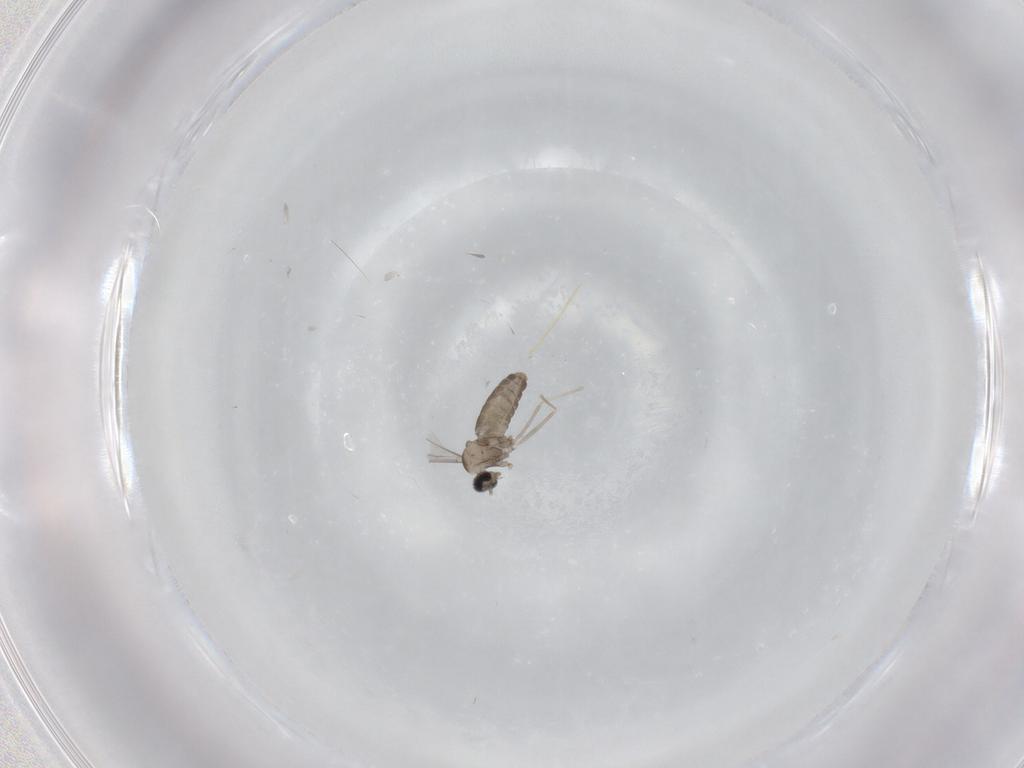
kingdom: Animalia
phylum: Arthropoda
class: Insecta
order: Diptera
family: Cecidomyiidae
